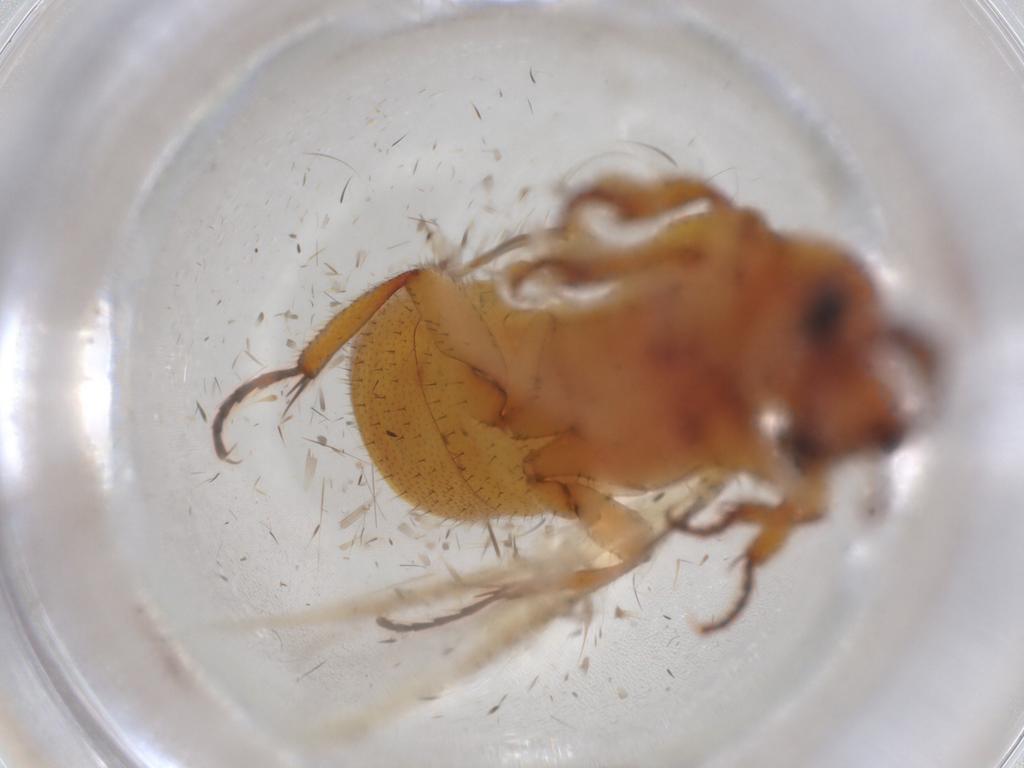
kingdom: Animalia
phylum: Arthropoda
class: Insecta
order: Coleoptera
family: Staphylinidae
